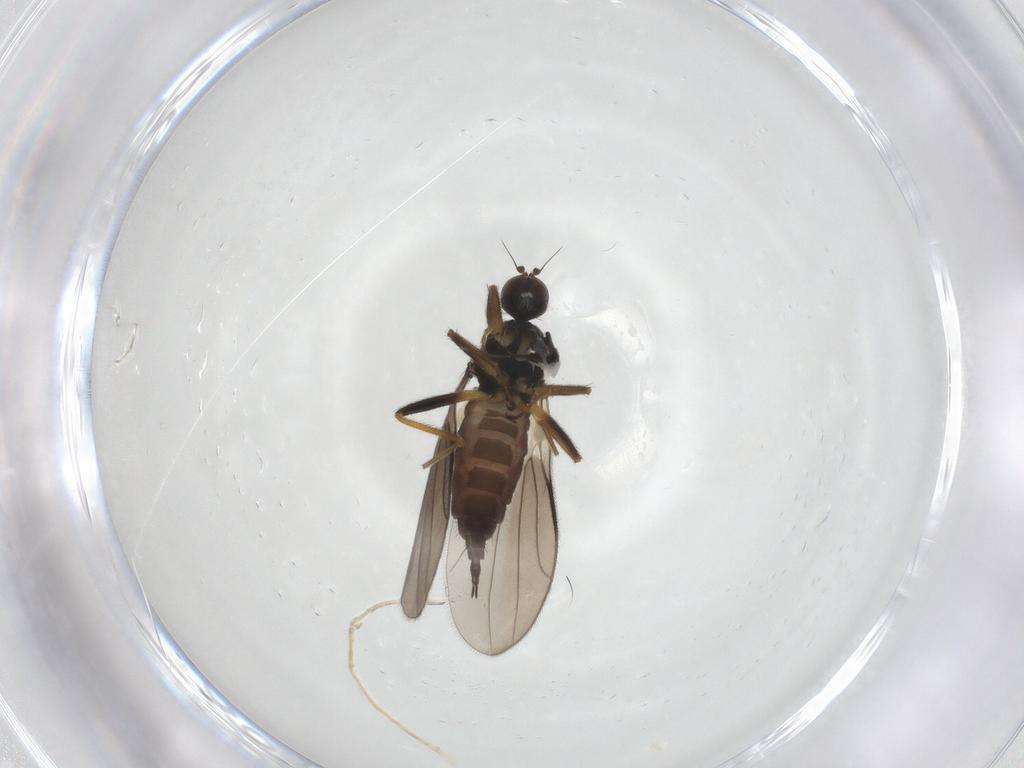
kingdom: Animalia
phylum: Arthropoda
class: Insecta
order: Diptera
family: Hybotidae
